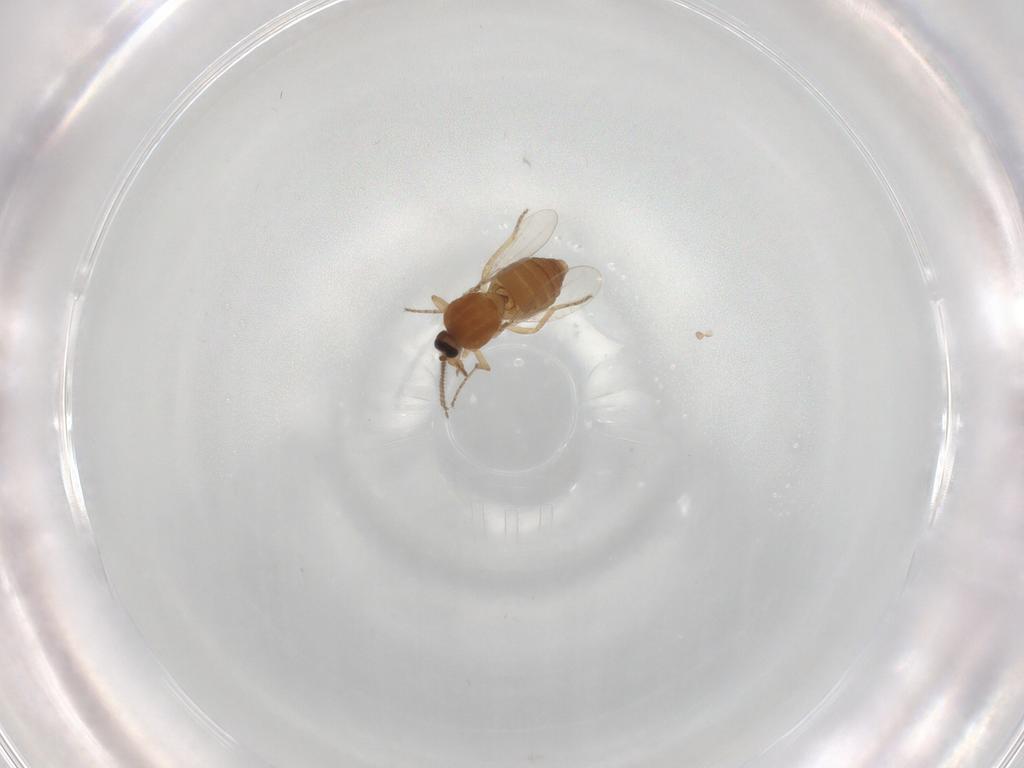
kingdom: Animalia
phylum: Arthropoda
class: Insecta
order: Diptera
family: Ceratopogonidae
